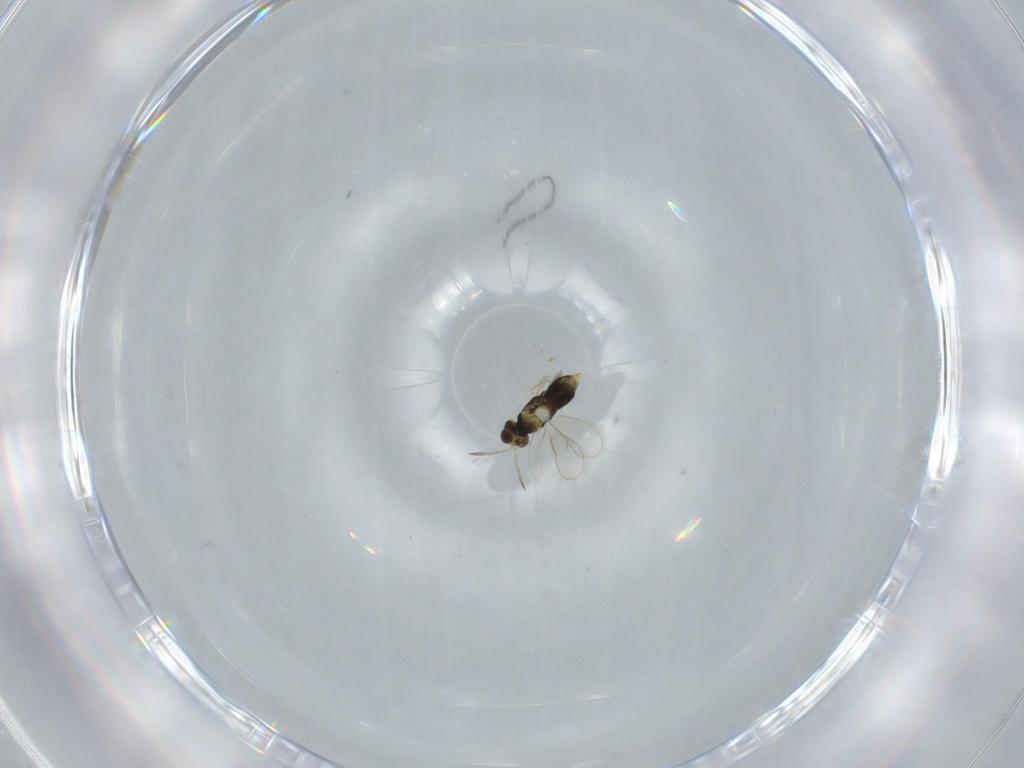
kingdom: Animalia
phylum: Arthropoda
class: Insecta
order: Hymenoptera
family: Aphelinidae
